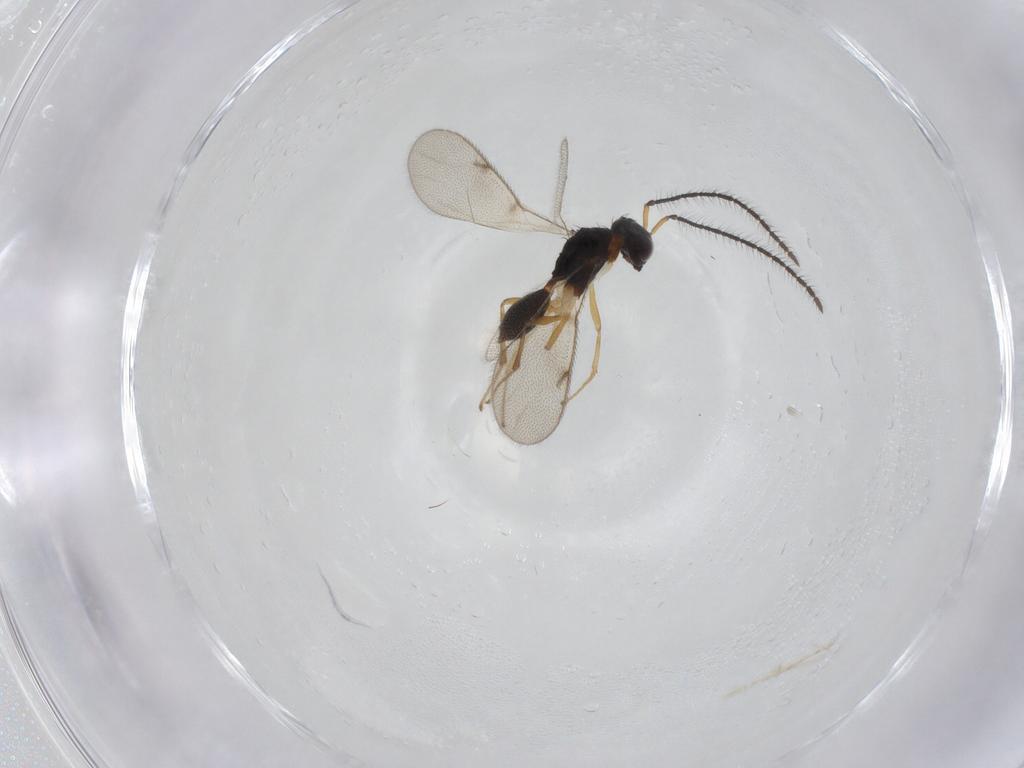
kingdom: Animalia
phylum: Arthropoda
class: Insecta
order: Hymenoptera
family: Diparidae
